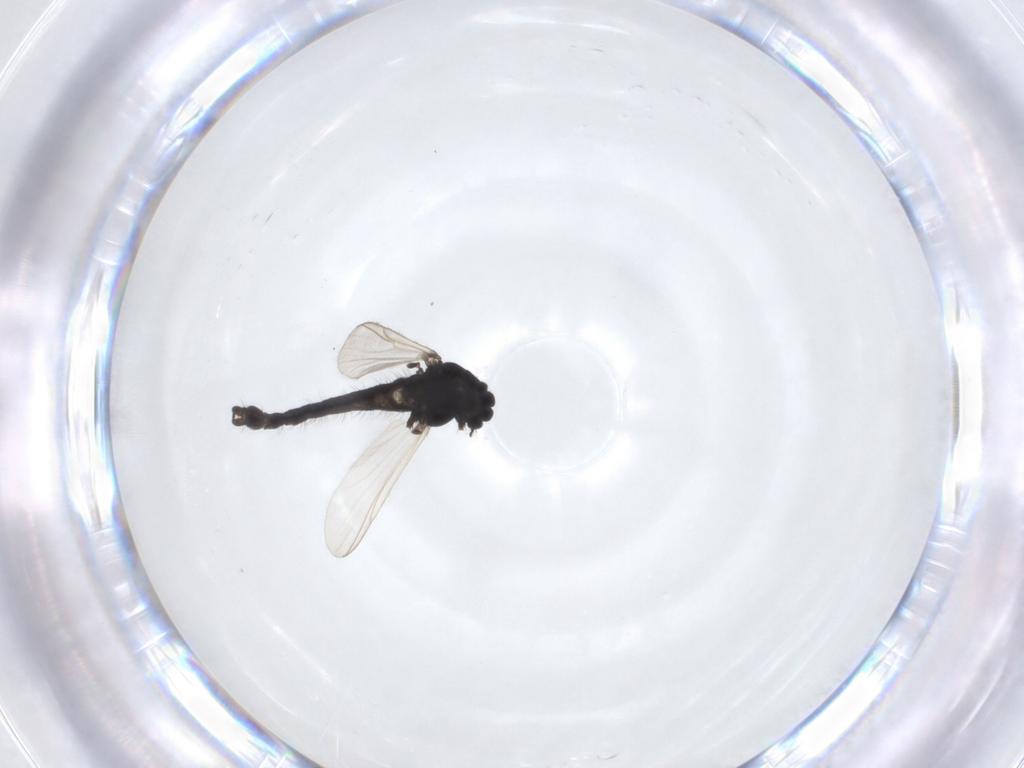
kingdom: Animalia
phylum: Arthropoda
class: Insecta
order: Diptera
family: Chironomidae
